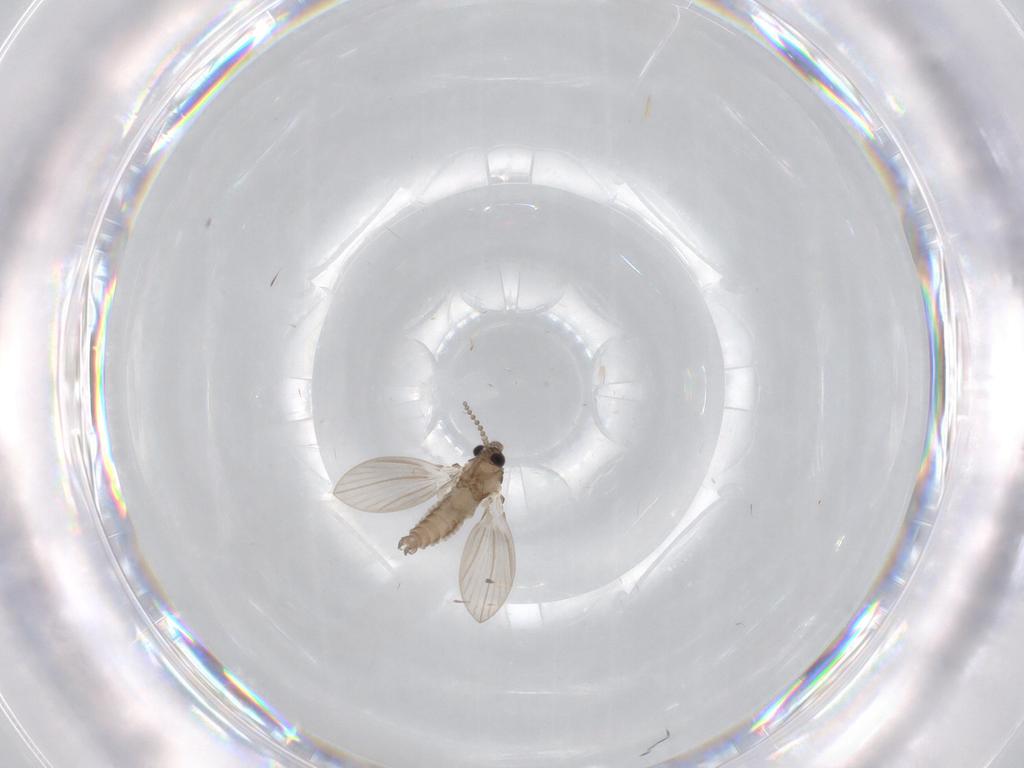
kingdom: Animalia
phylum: Arthropoda
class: Insecta
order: Diptera
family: Psychodidae
